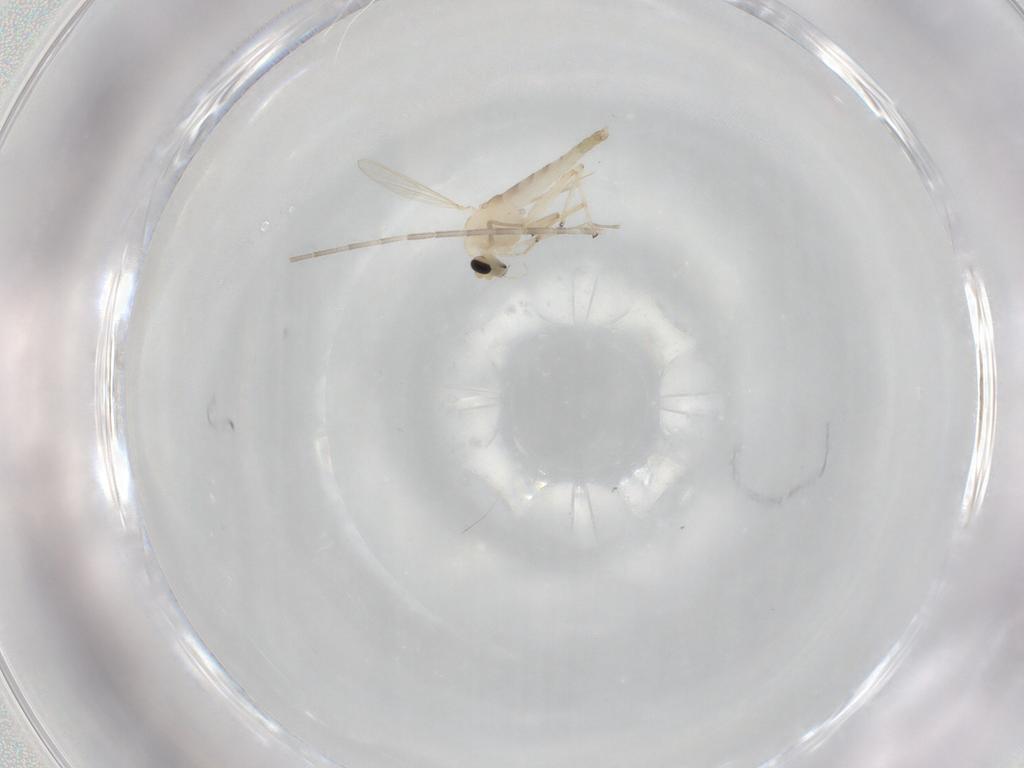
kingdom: Animalia
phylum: Arthropoda
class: Insecta
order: Diptera
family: Chironomidae
